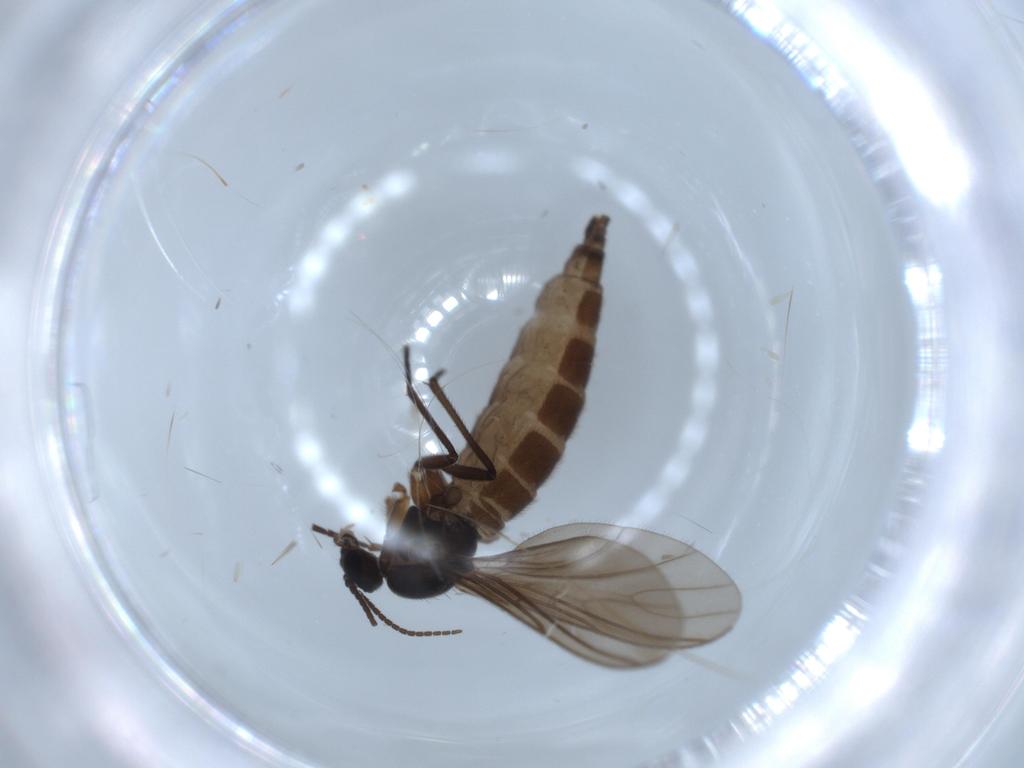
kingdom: Animalia
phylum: Arthropoda
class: Insecta
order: Diptera
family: Sciaridae
